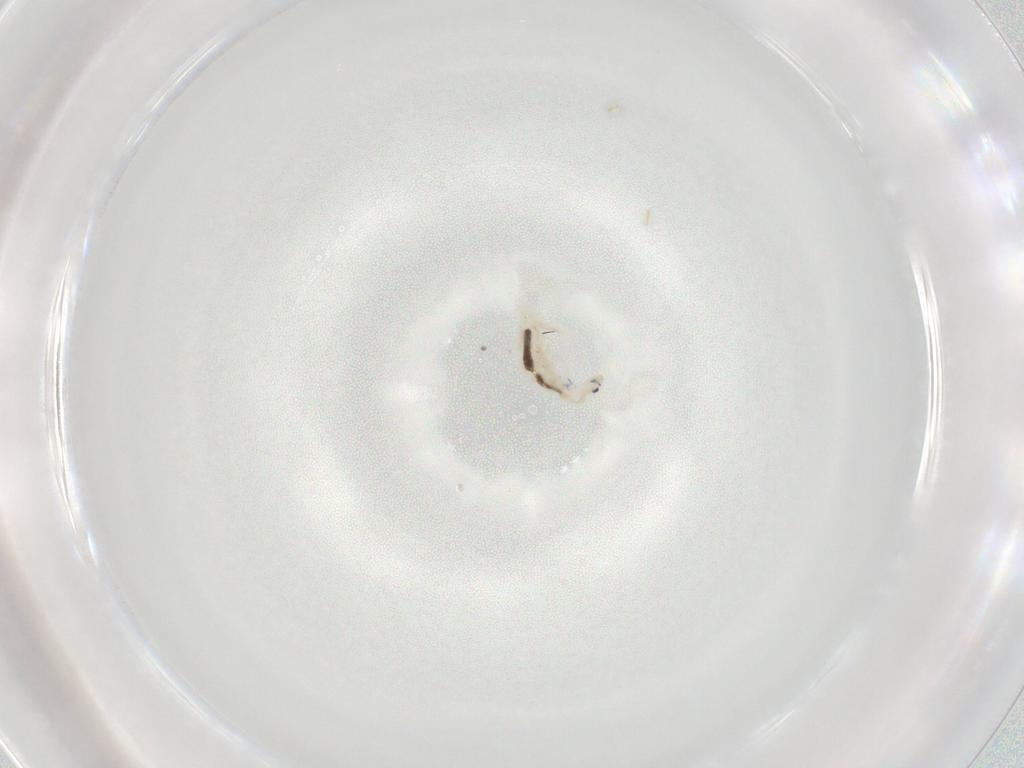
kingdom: Animalia
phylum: Arthropoda
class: Collembola
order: Entomobryomorpha
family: Entomobryidae
